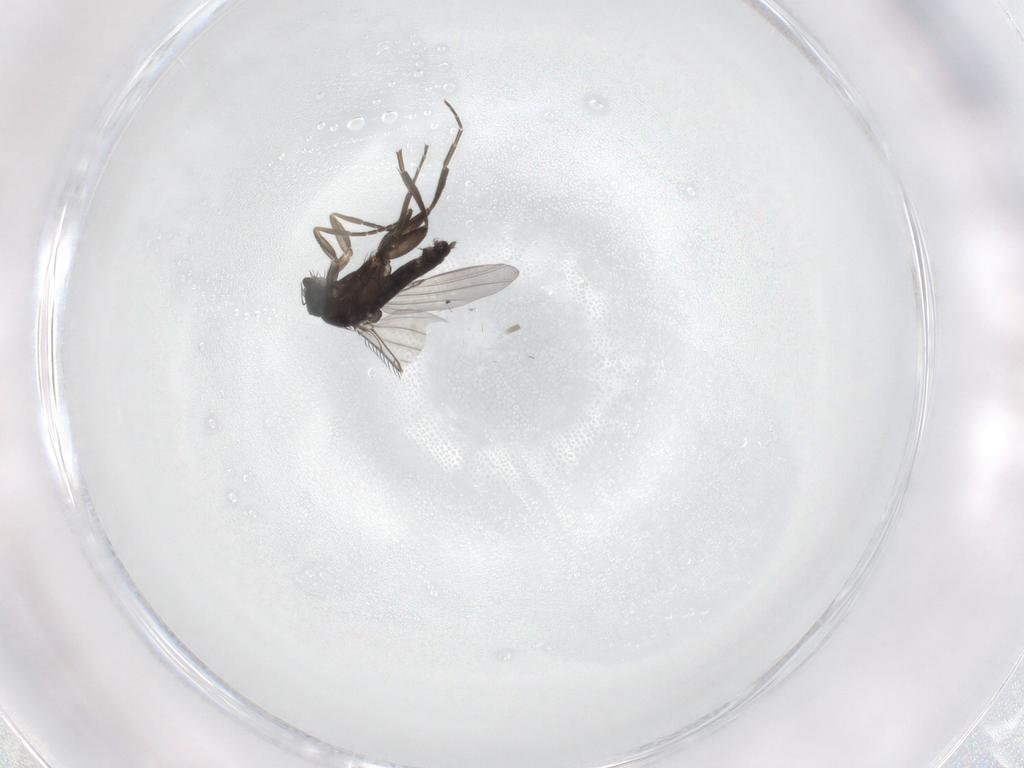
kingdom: Animalia
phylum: Arthropoda
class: Insecta
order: Diptera
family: Phoridae
